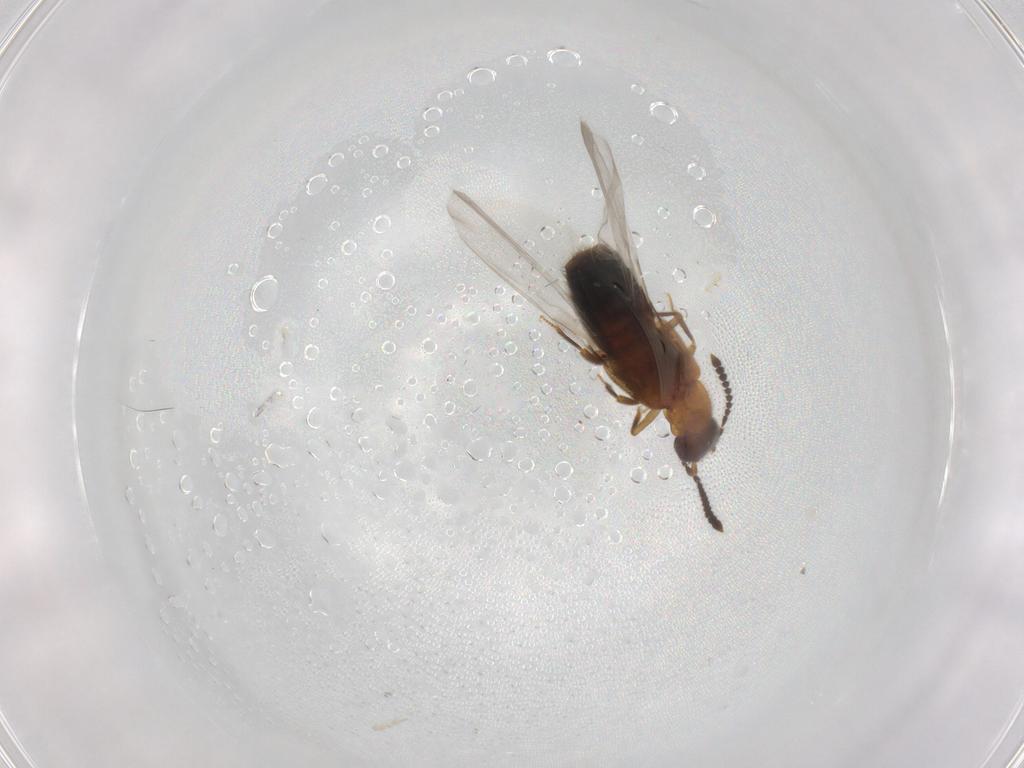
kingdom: Animalia
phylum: Arthropoda
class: Insecta
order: Coleoptera
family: Staphylinidae
